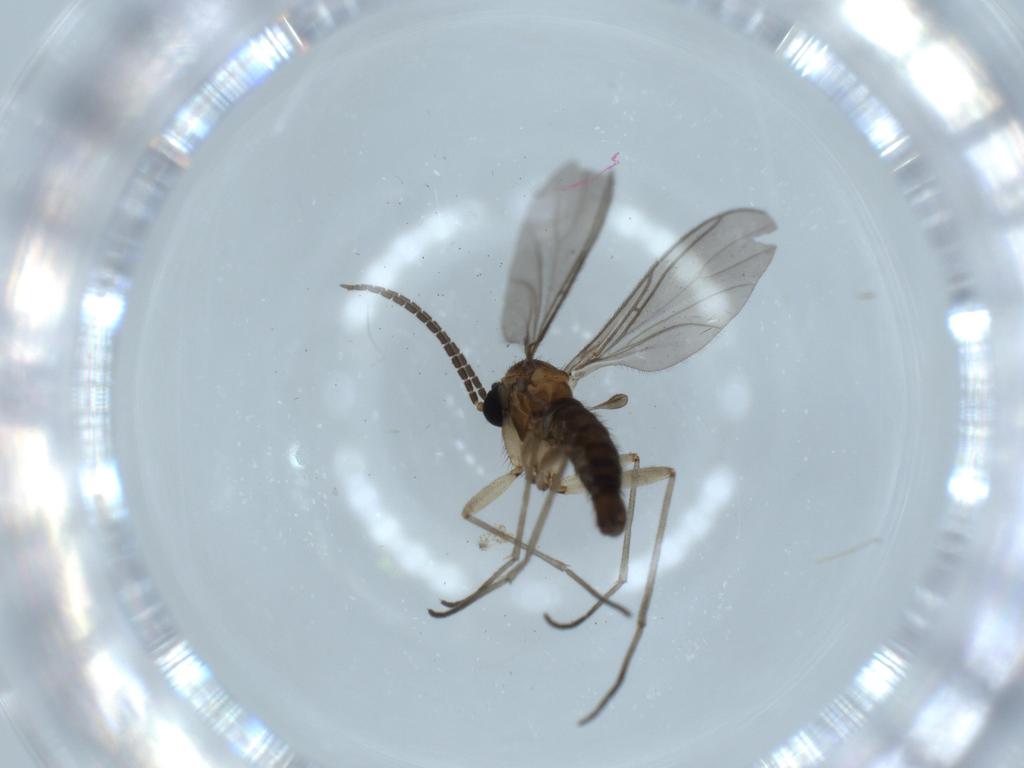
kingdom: Animalia
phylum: Arthropoda
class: Insecta
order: Diptera
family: Sciaridae
